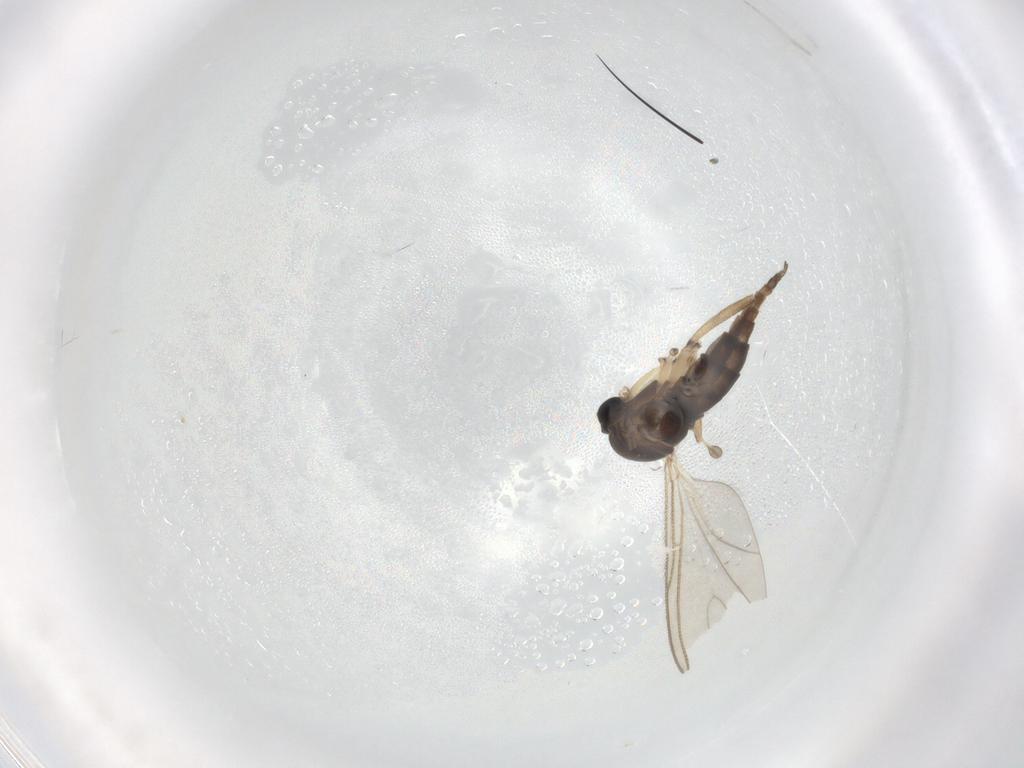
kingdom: Animalia
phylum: Arthropoda
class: Insecta
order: Diptera
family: Sciaridae
